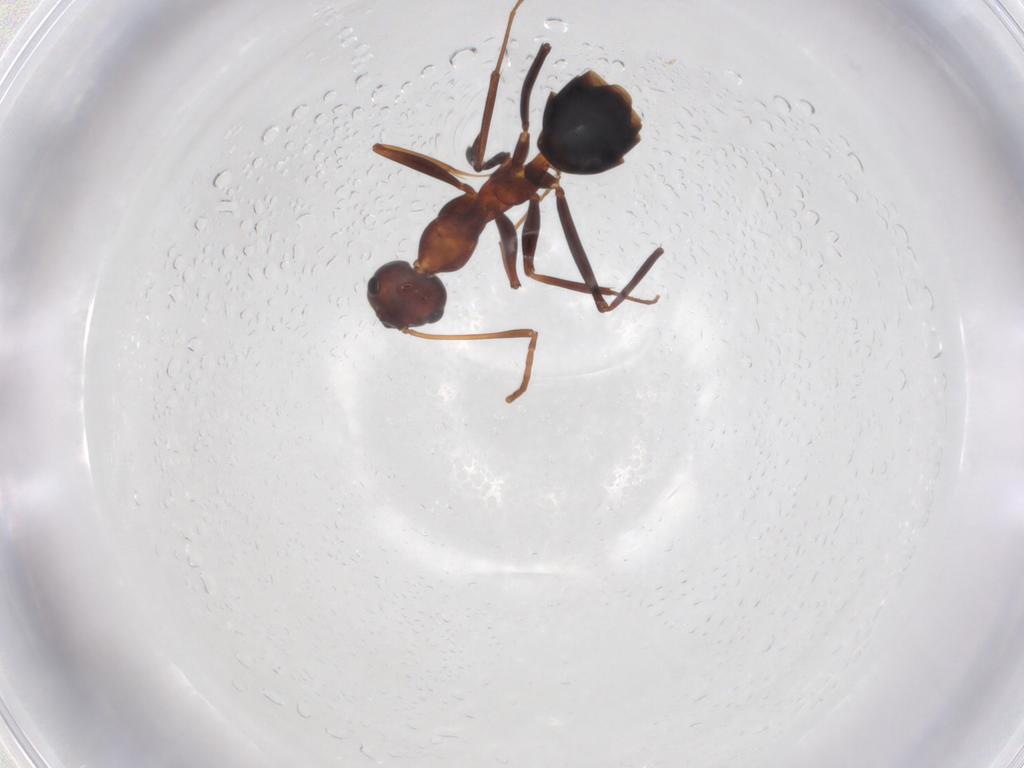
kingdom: Animalia
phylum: Arthropoda
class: Insecta
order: Hymenoptera
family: Formicidae
